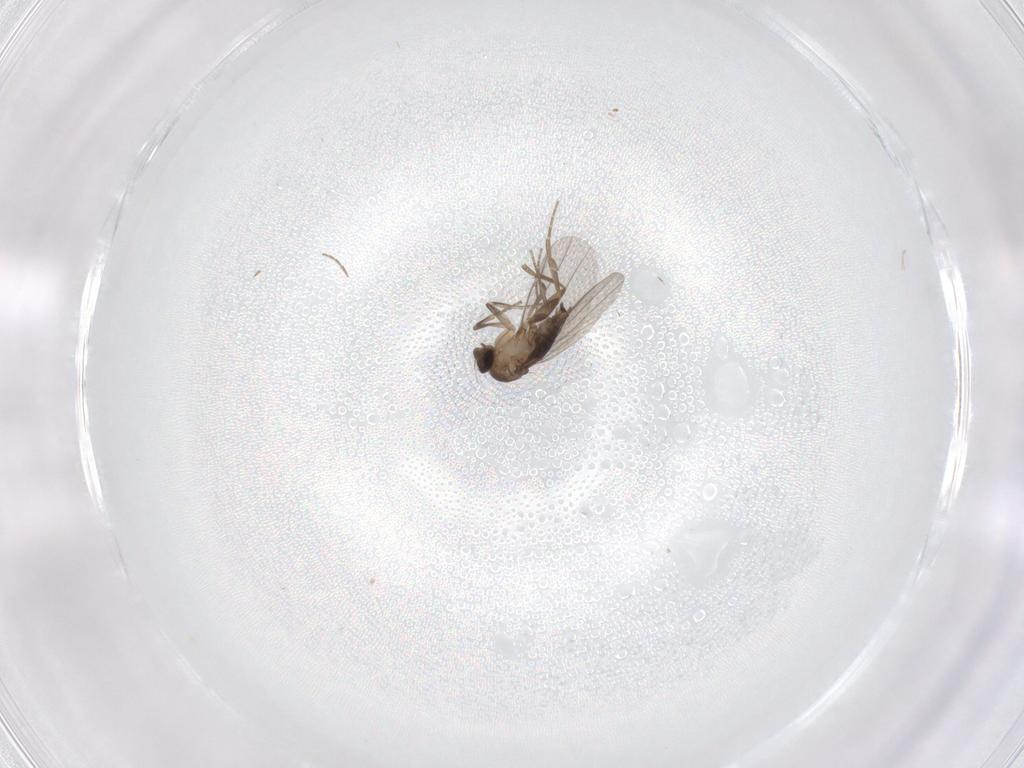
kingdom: Animalia
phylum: Arthropoda
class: Insecta
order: Diptera
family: Phoridae
